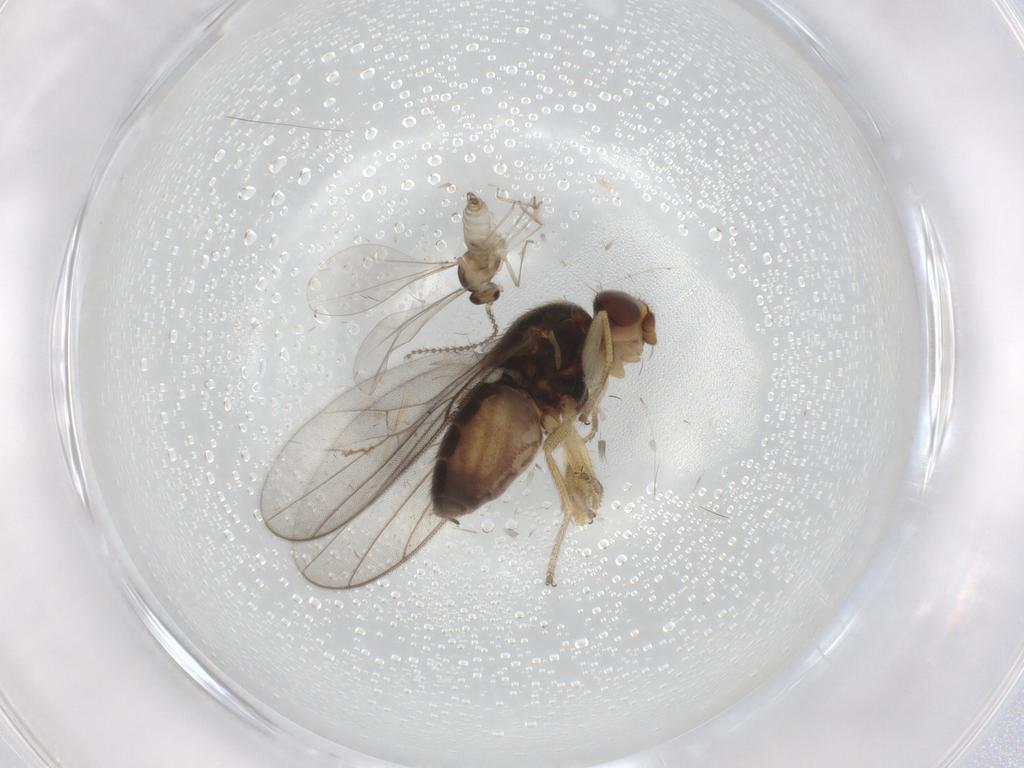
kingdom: Animalia
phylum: Arthropoda
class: Insecta
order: Diptera
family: Chloropidae
